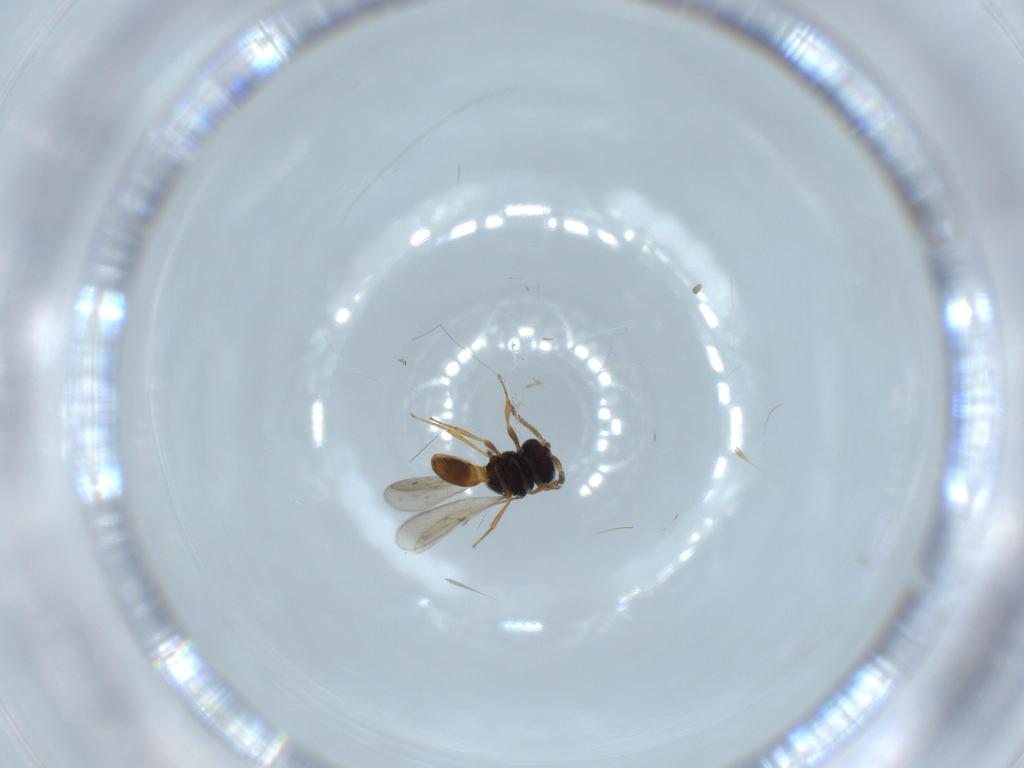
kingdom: Animalia
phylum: Arthropoda
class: Insecta
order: Hymenoptera
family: Scelionidae
